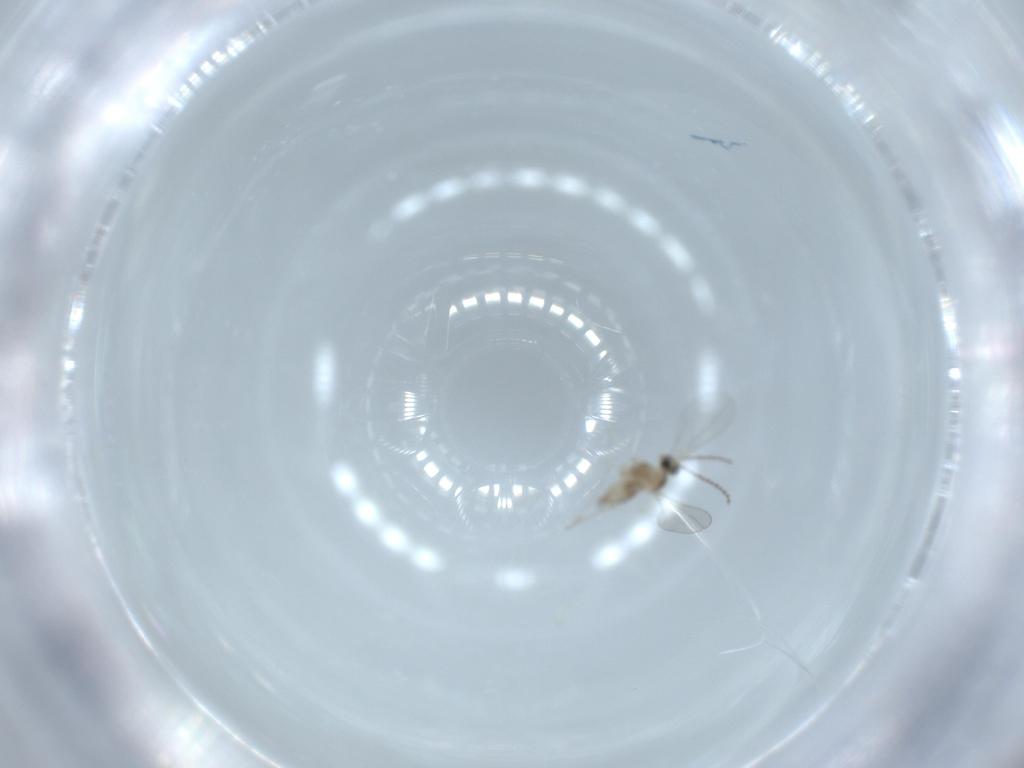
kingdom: Animalia
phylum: Arthropoda
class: Insecta
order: Diptera
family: Cecidomyiidae
